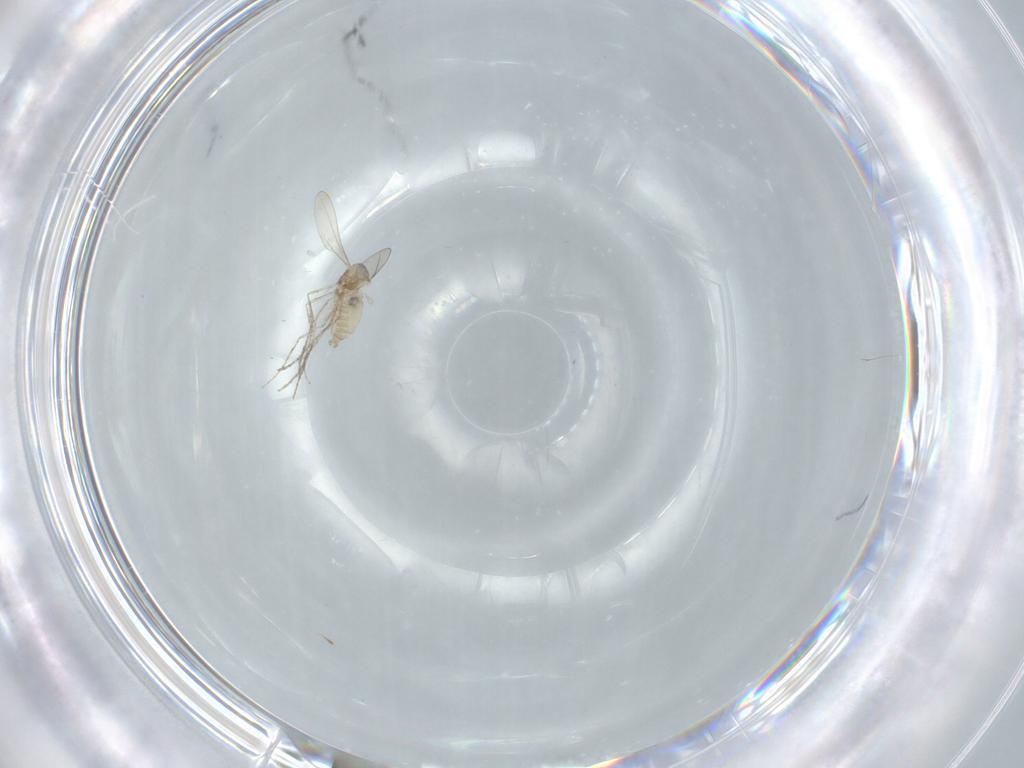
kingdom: Animalia
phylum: Arthropoda
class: Insecta
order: Diptera
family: Cecidomyiidae
